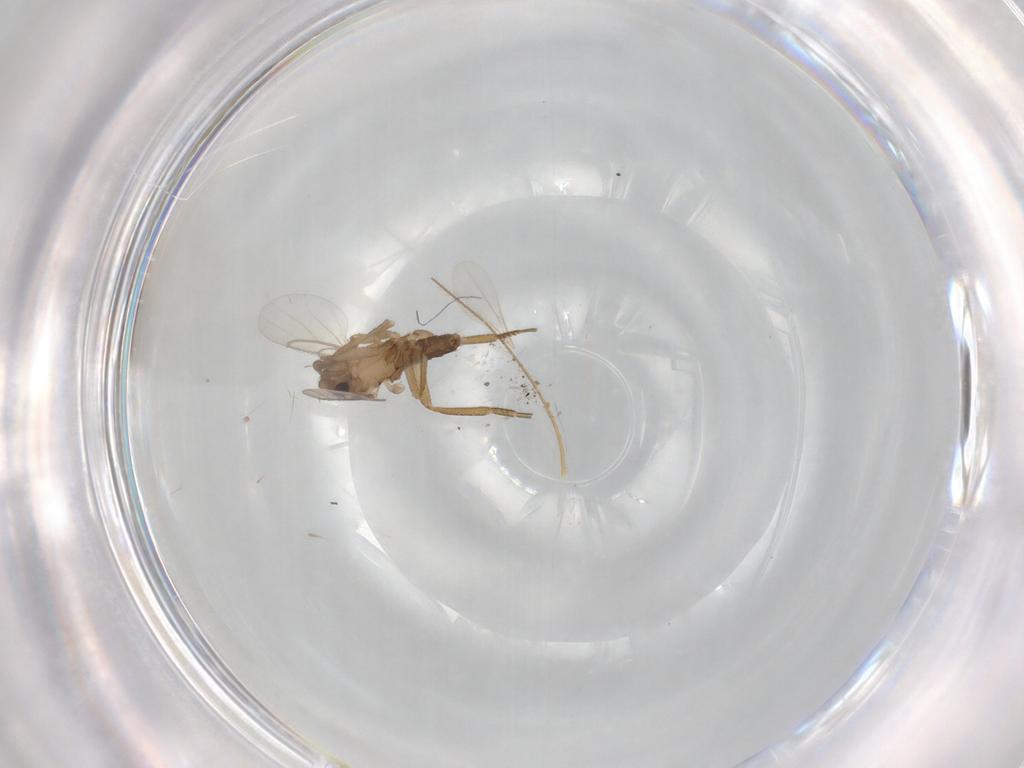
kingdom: Animalia
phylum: Arthropoda
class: Insecta
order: Diptera
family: Phoridae
